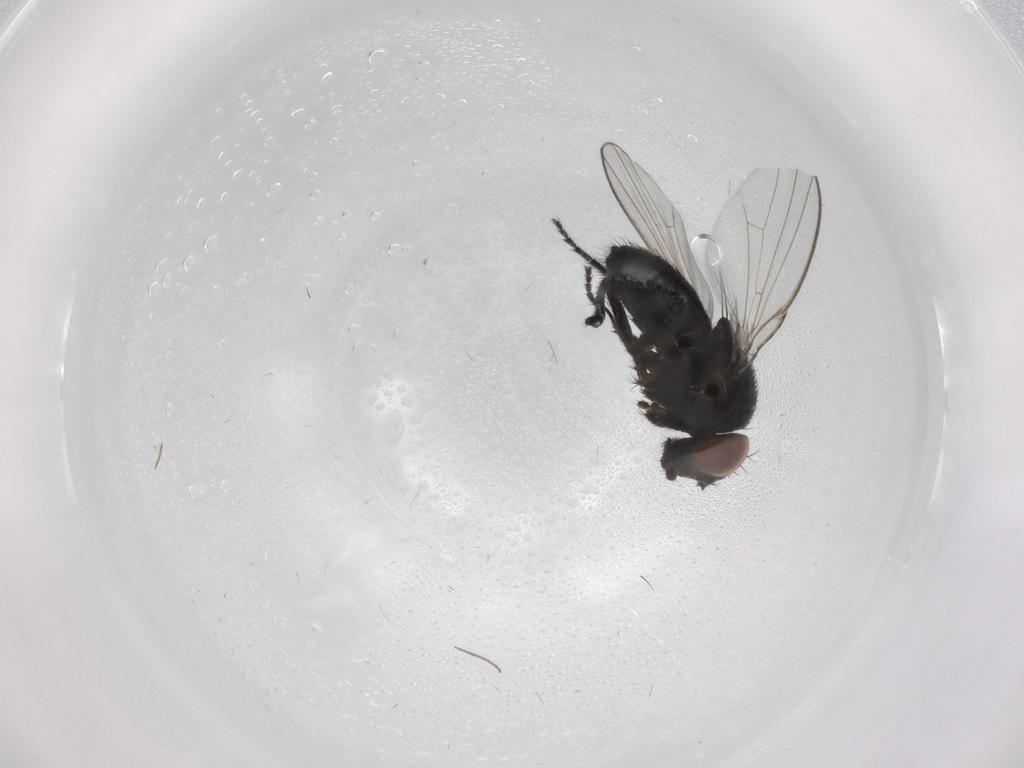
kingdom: Animalia
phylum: Arthropoda
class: Insecta
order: Diptera
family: Milichiidae
